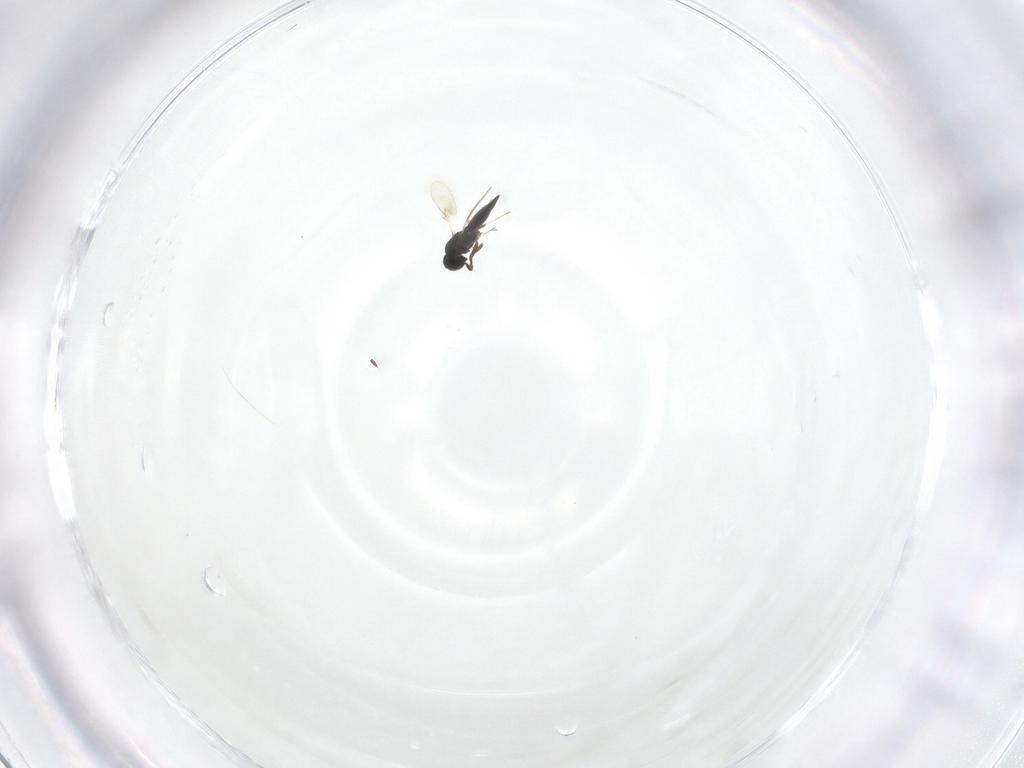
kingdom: Animalia
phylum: Arthropoda
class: Insecta
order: Hymenoptera
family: Scelionidae
